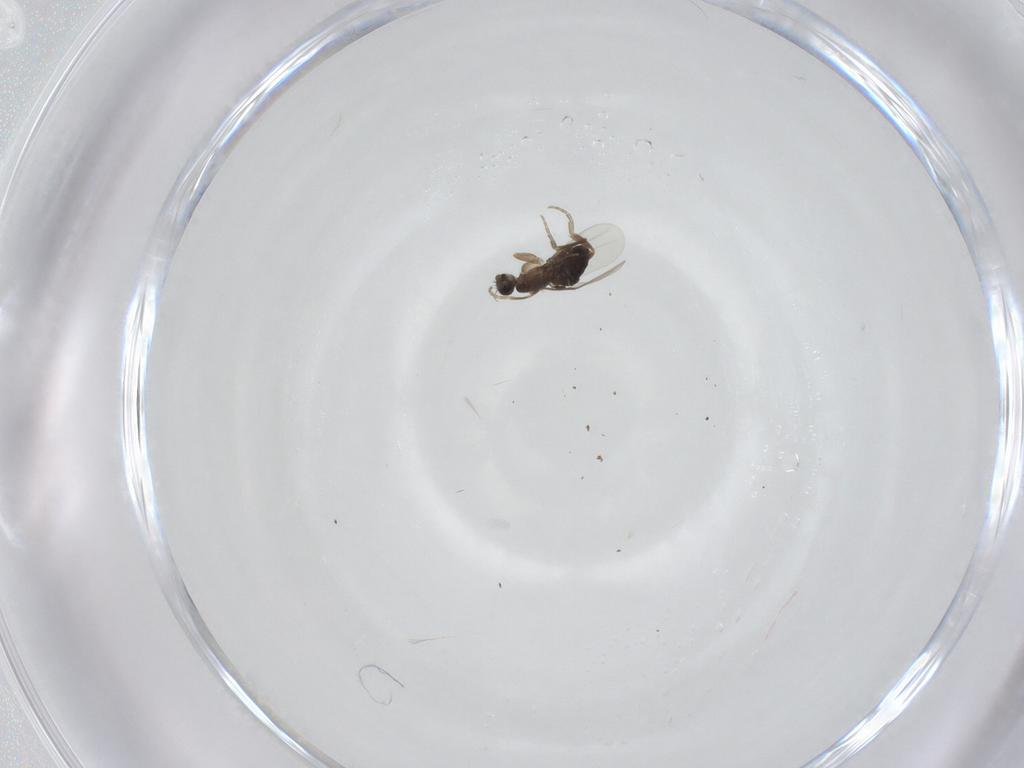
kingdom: Animalia
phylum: Arthropoda
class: Insecta
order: Diptera
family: Phoridae
